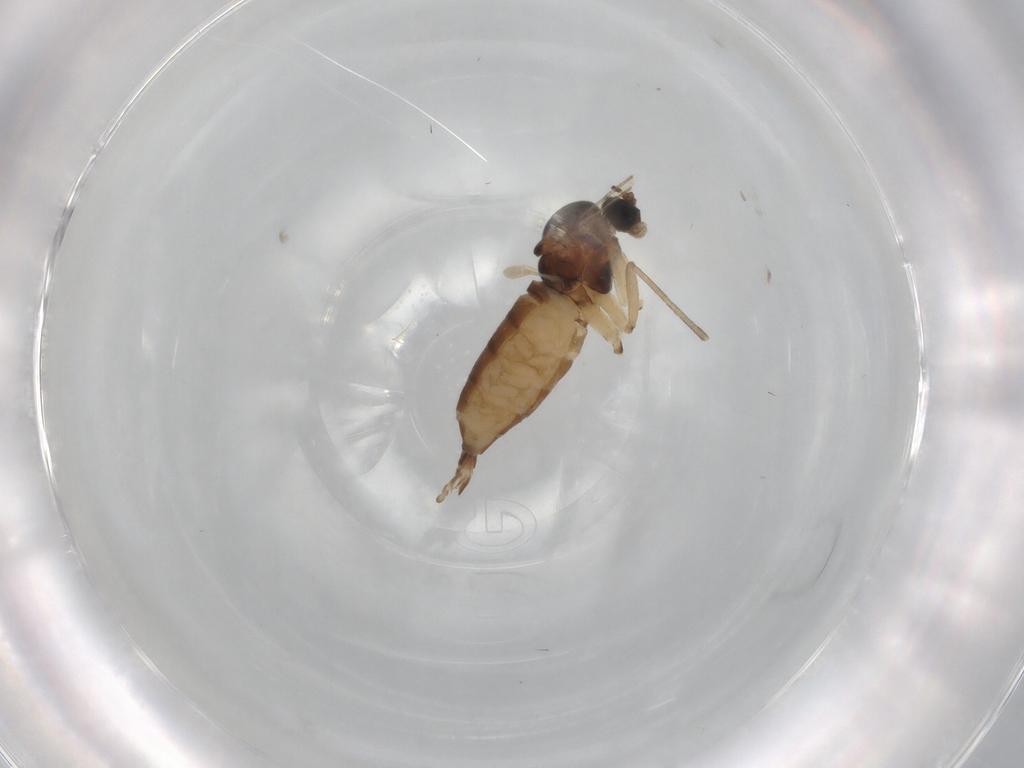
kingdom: Animalia
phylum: Arthropoda
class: Insecta
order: Diptera
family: Sciaridae
